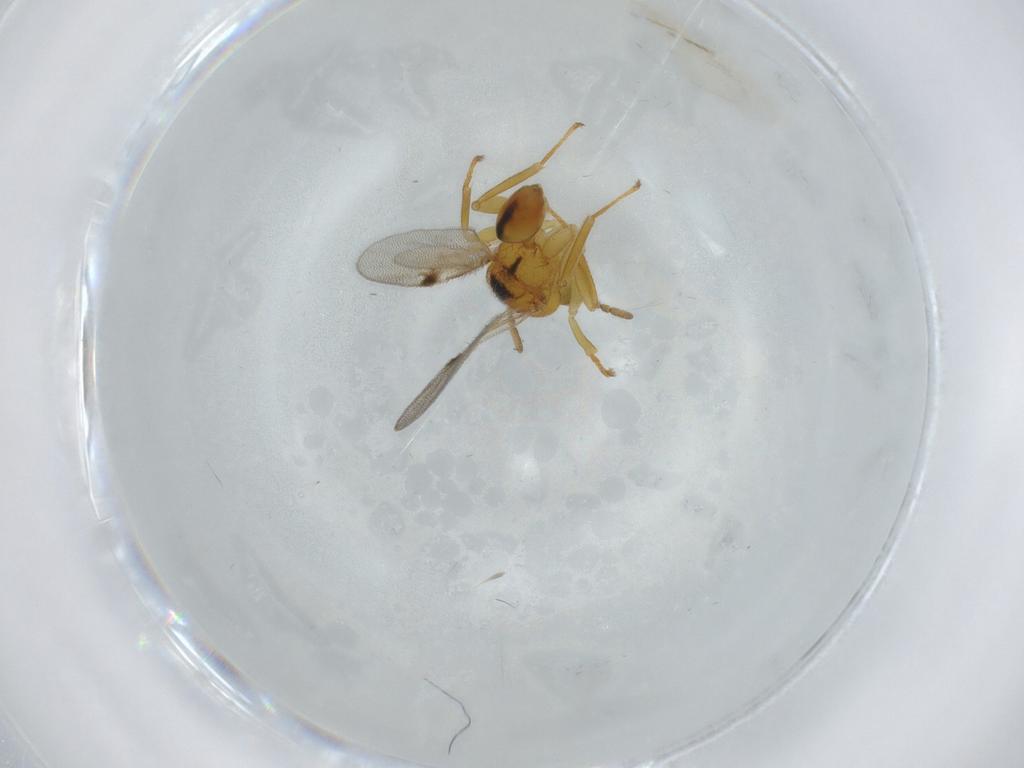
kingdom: Animalia
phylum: Arthropoda
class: Insecta
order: Hymenoptera
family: Eurytomidae
